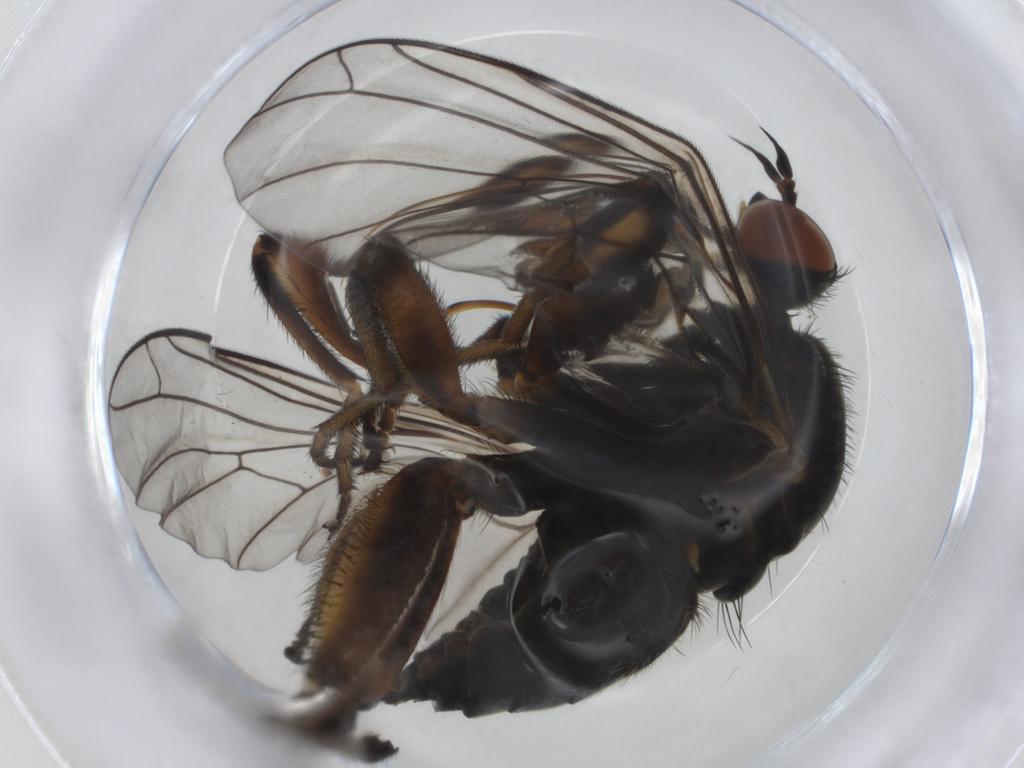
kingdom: Animalia
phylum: Arthropoda
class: Insecta
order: Diptera
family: Empididae
